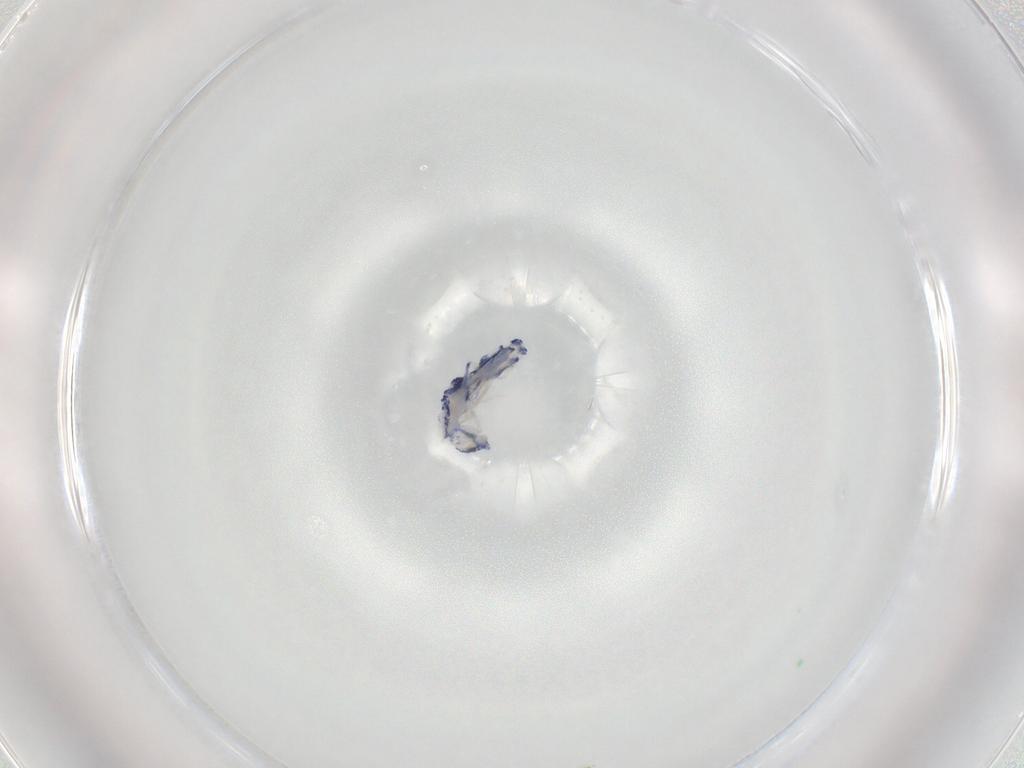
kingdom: Animalia
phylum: Arthropoda
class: Collembola
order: Entomobryomorpha
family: Entomobryidae
